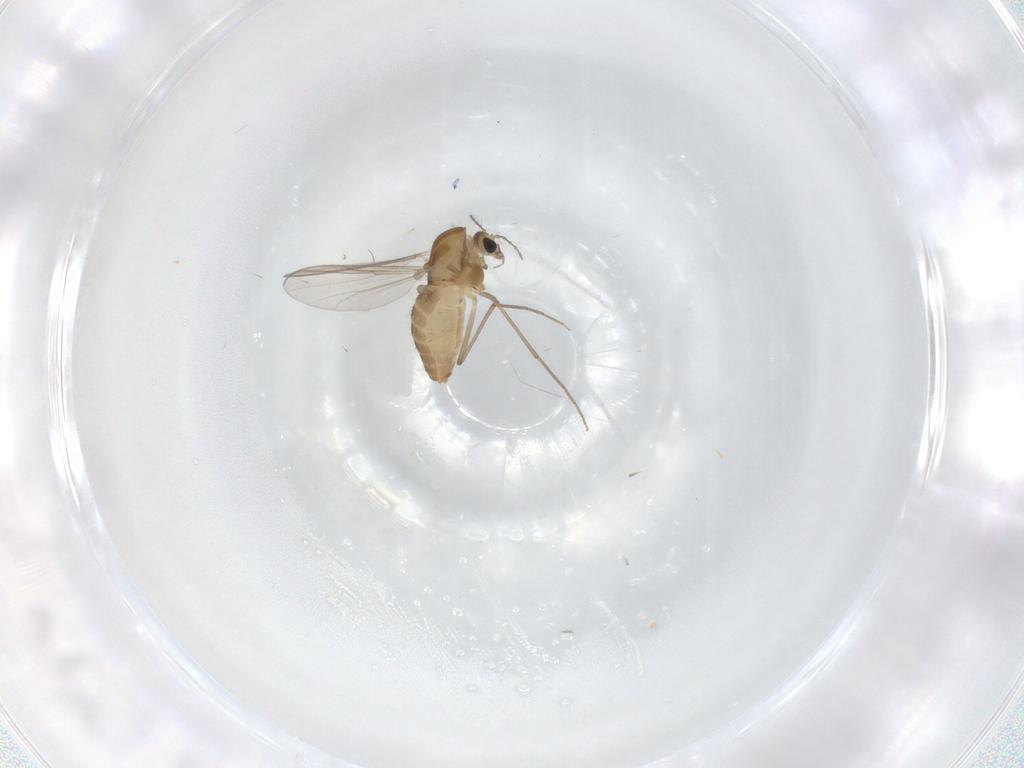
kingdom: Animalia
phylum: Arthropoda
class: Insecta
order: Diptera
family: Chironomidae
